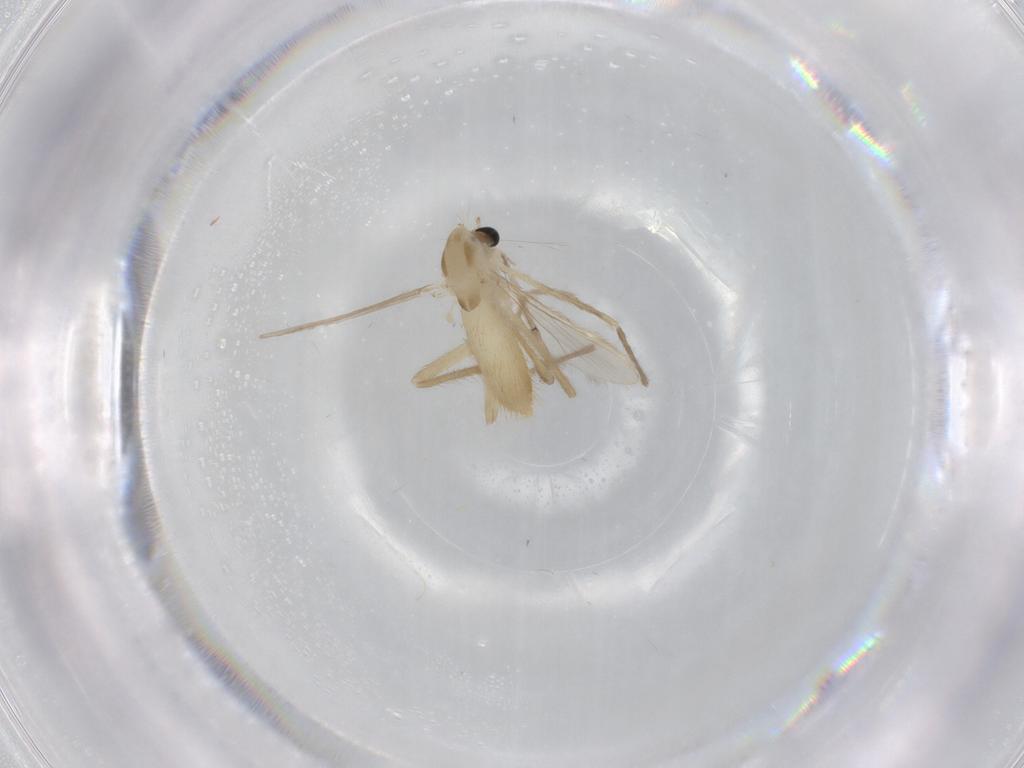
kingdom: Animalia
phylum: Arthropoda
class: Insecta
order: Diptera
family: Chironomidae
